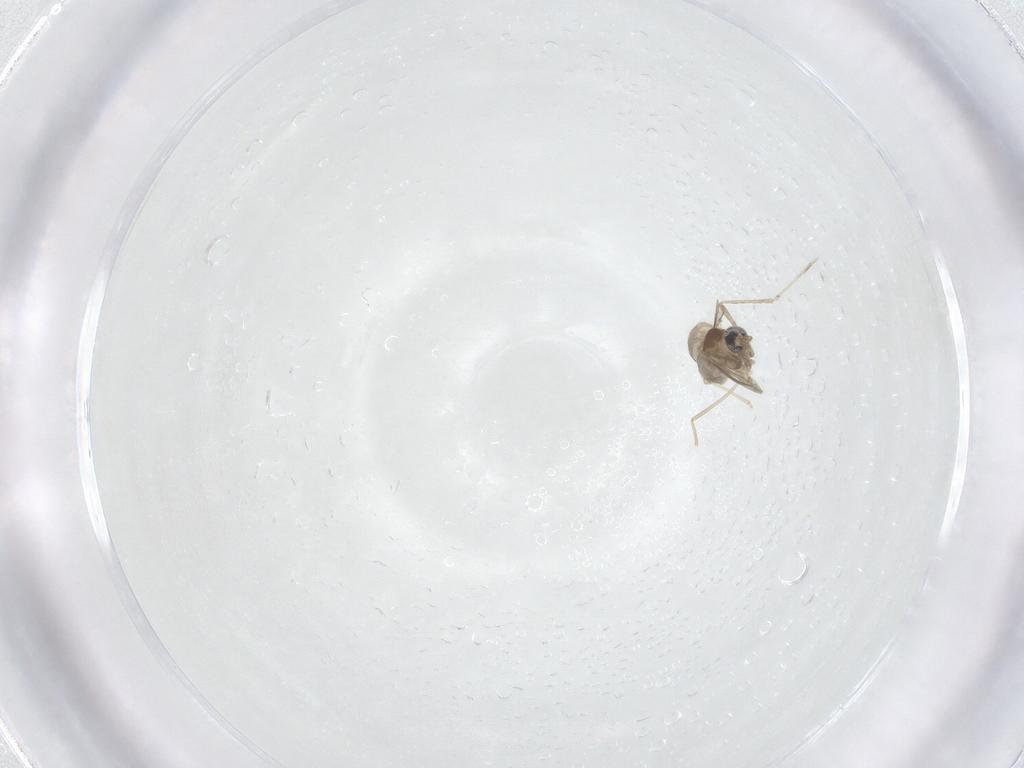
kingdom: Animalia
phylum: Arthropoda
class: Insecta
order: Diptera
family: Cecidomyiidae
